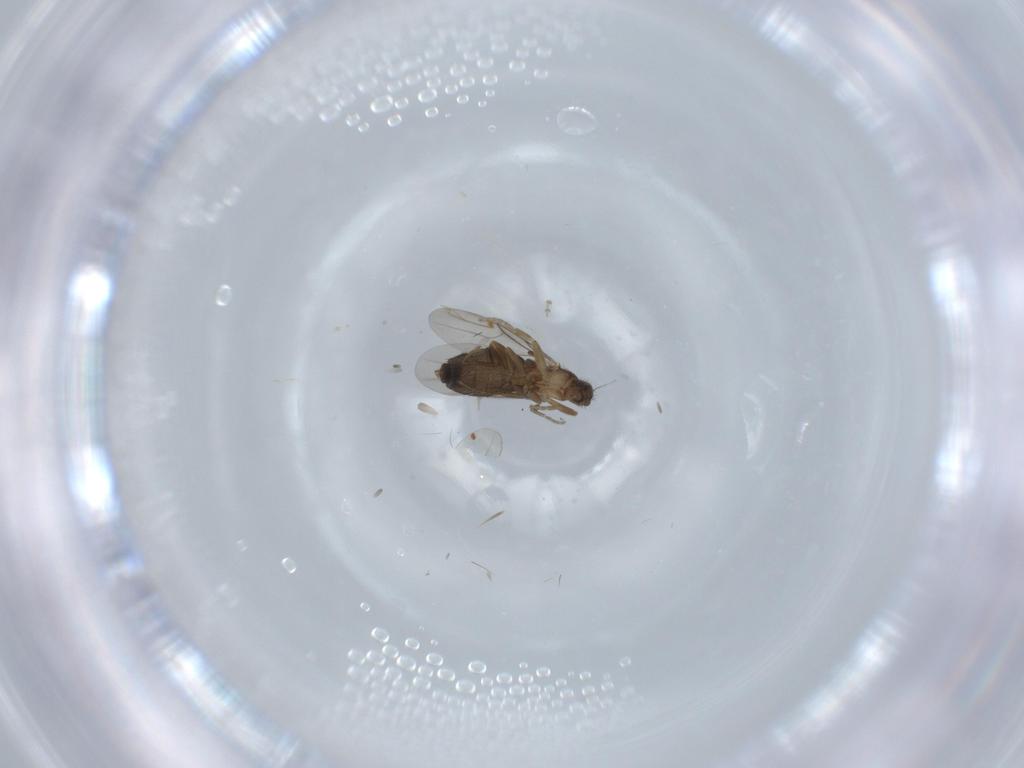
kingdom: Animalia
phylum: Arthropoda
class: Insecta
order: Diptera
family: Phoridae
